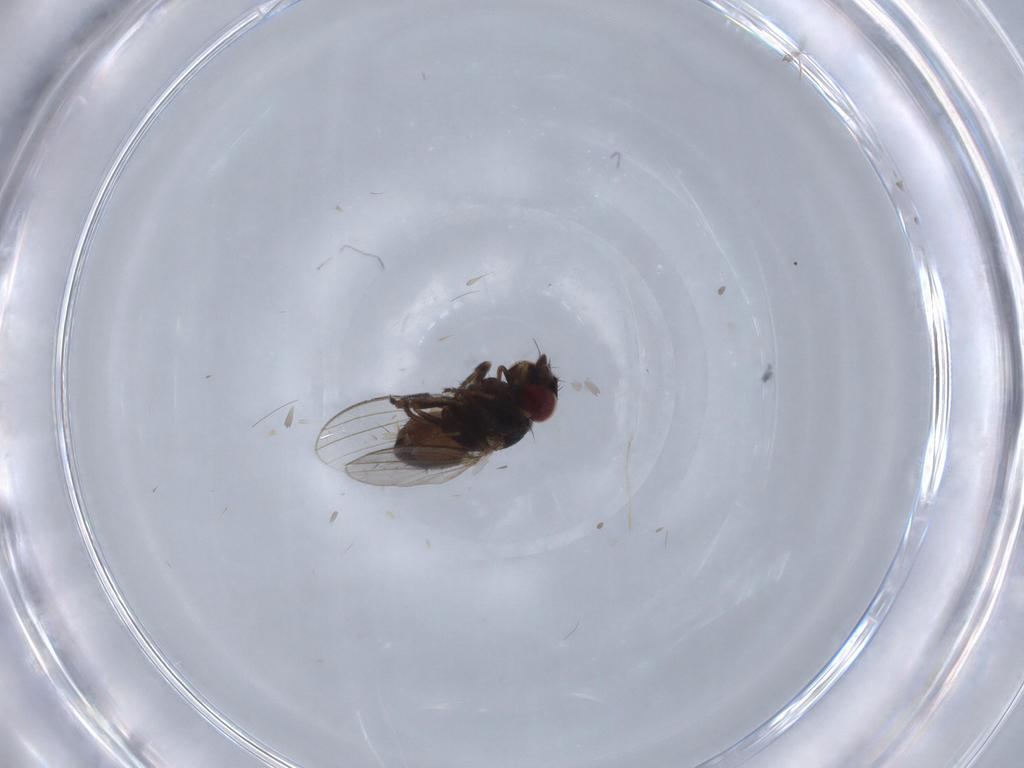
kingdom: Animalia
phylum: Arthropoda
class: Insecta
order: Diptera
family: Milichiidae
